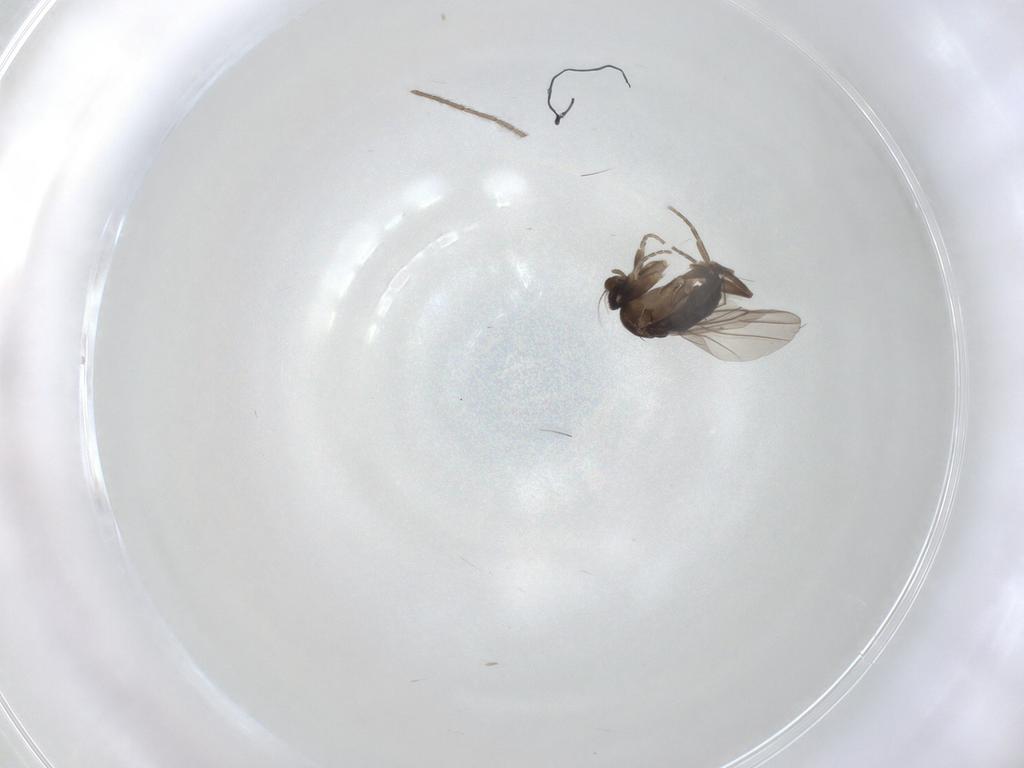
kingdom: Animalia
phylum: Arthropoda
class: Insecta
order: Diptera
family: Limoniidae
